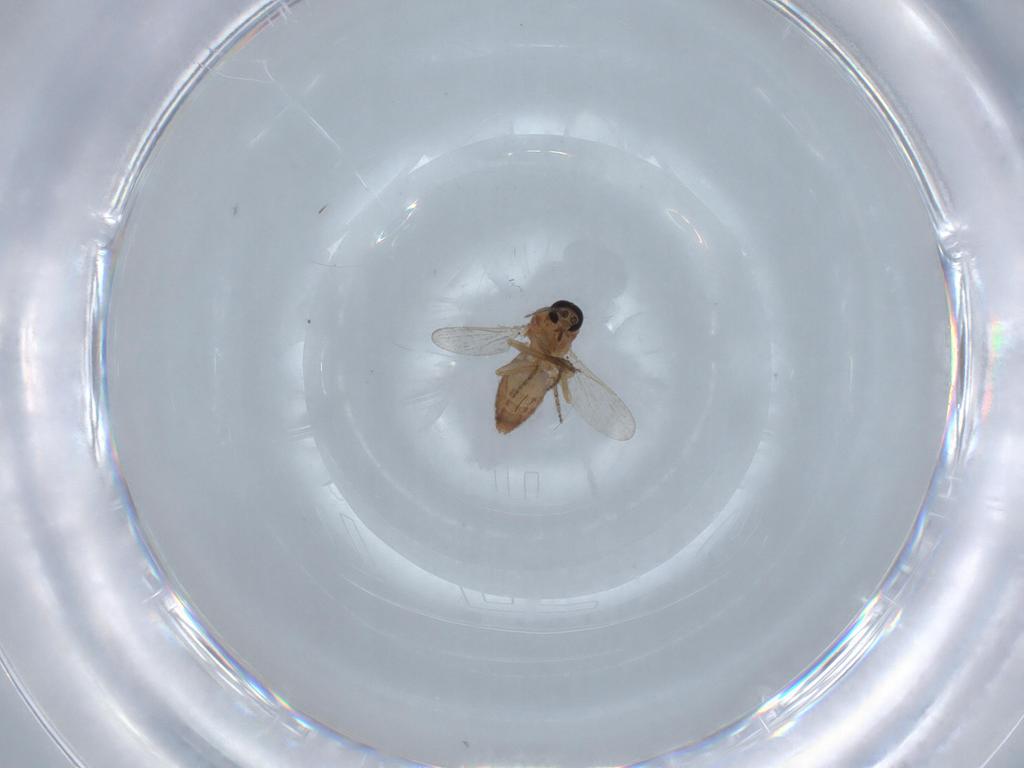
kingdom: Animalia
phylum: Arthropoda
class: Insecta
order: Diptera
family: Ceratopogonidae
